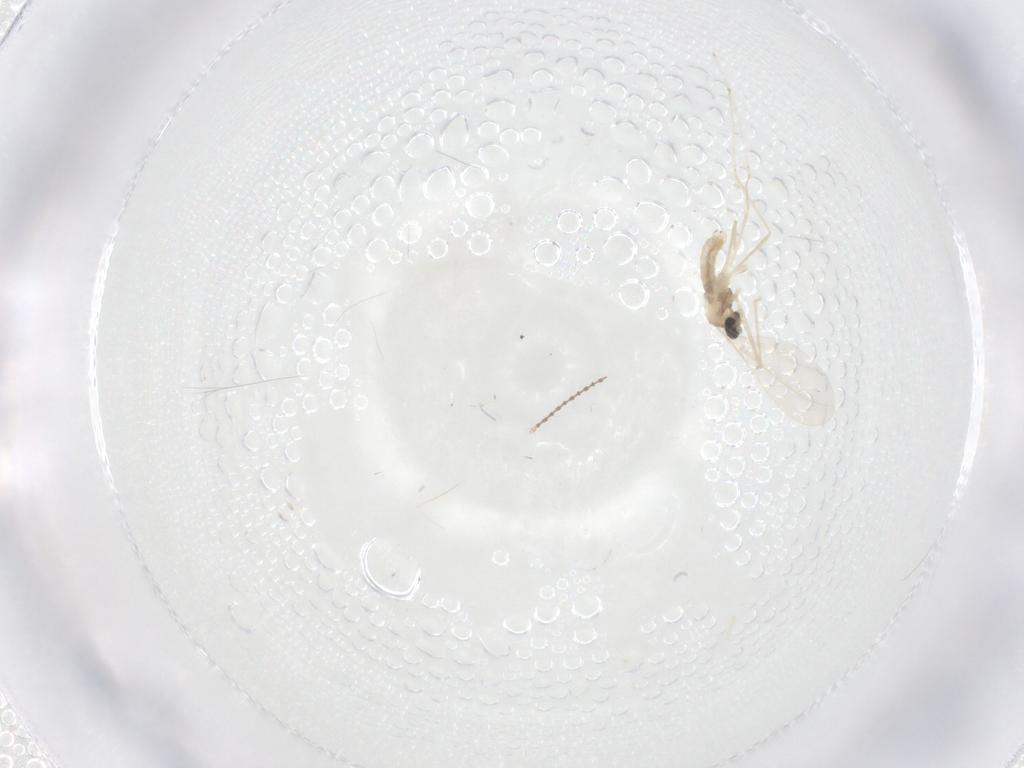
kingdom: Animalia
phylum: Arthropoda
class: Insecta
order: Diptera
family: Cecidomyiidae
